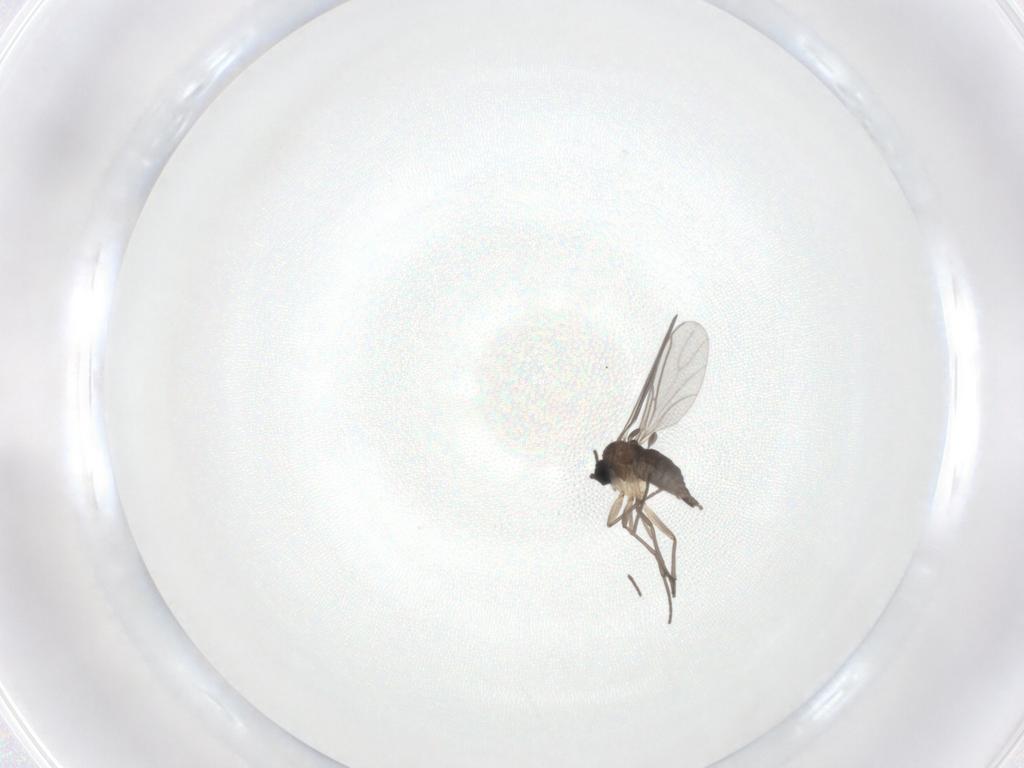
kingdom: Animalia
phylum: Arthropoda
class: Insecta
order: Diptera
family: Sciaridae
